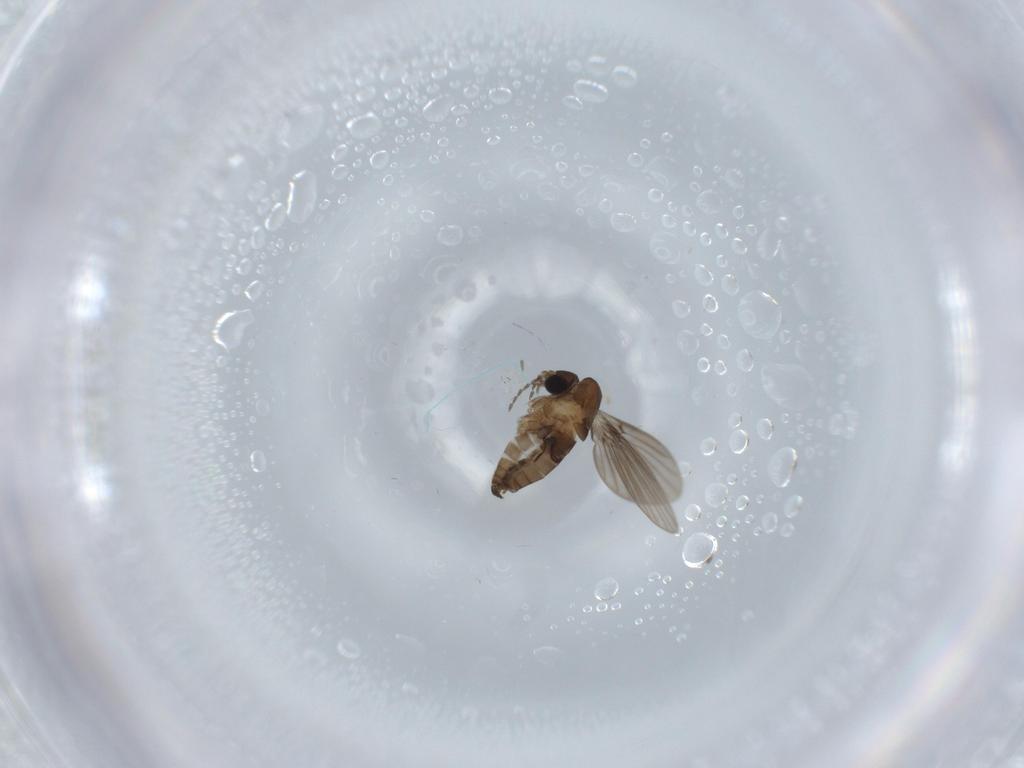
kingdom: Animalia
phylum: Arthropoda
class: Insecta
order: Diptera
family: Psychodidae
